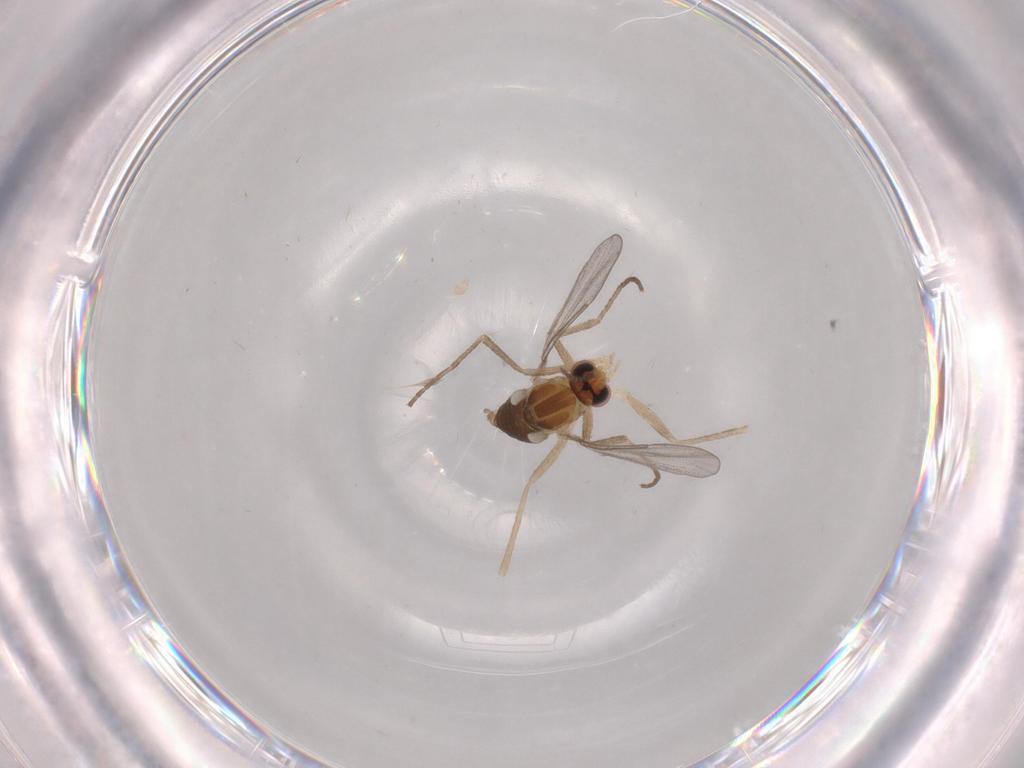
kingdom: Animalia
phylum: Arthropoda
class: Insecta
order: Diptera
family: Cecidomyiidae
